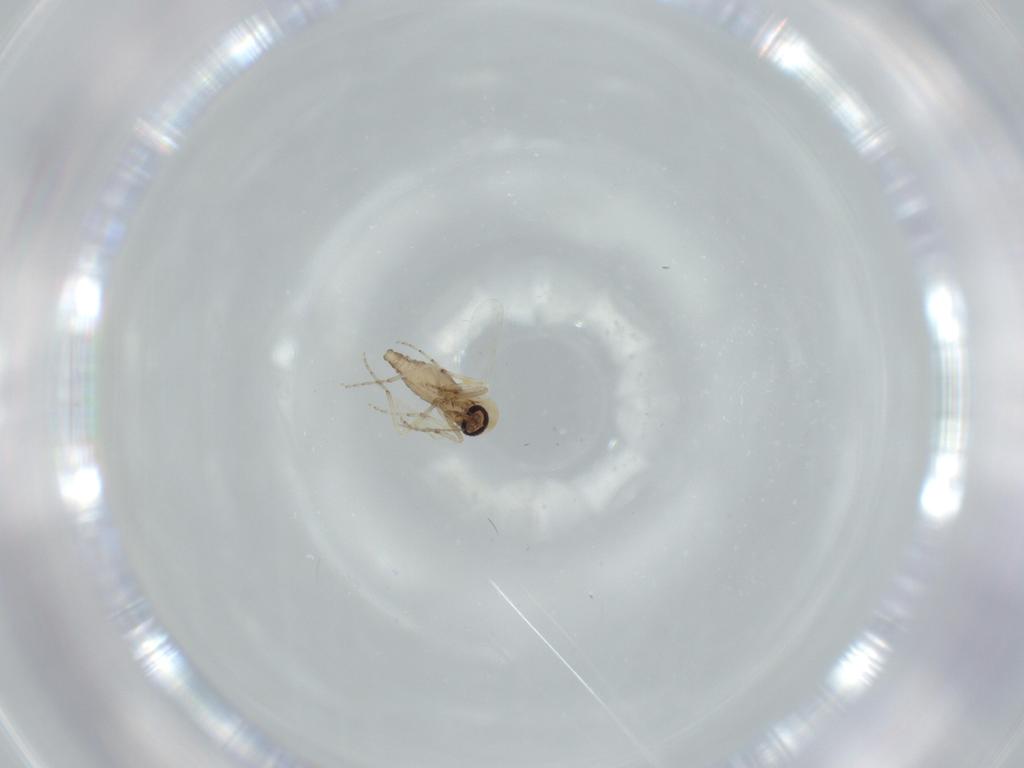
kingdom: Animalia
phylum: Arthropoda
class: Insecta
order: Diptera
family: Ceratopogonidae
